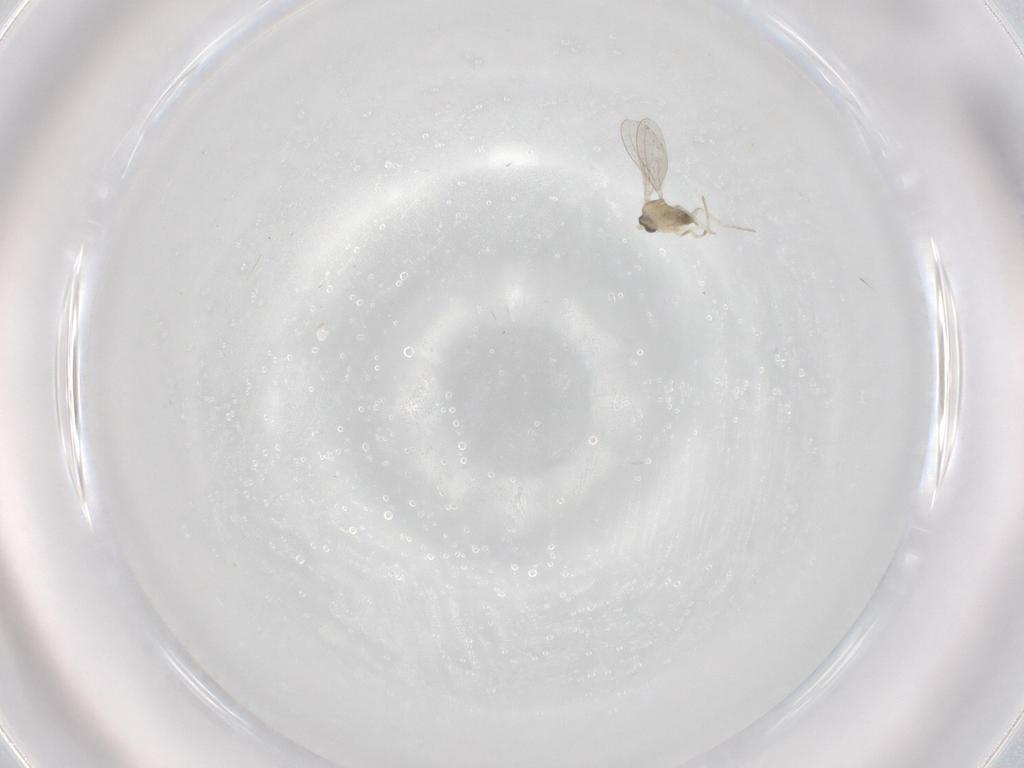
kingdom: Animalia
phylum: Arthropoda
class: Insecta
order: Diptera
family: Cecidomyiidae
